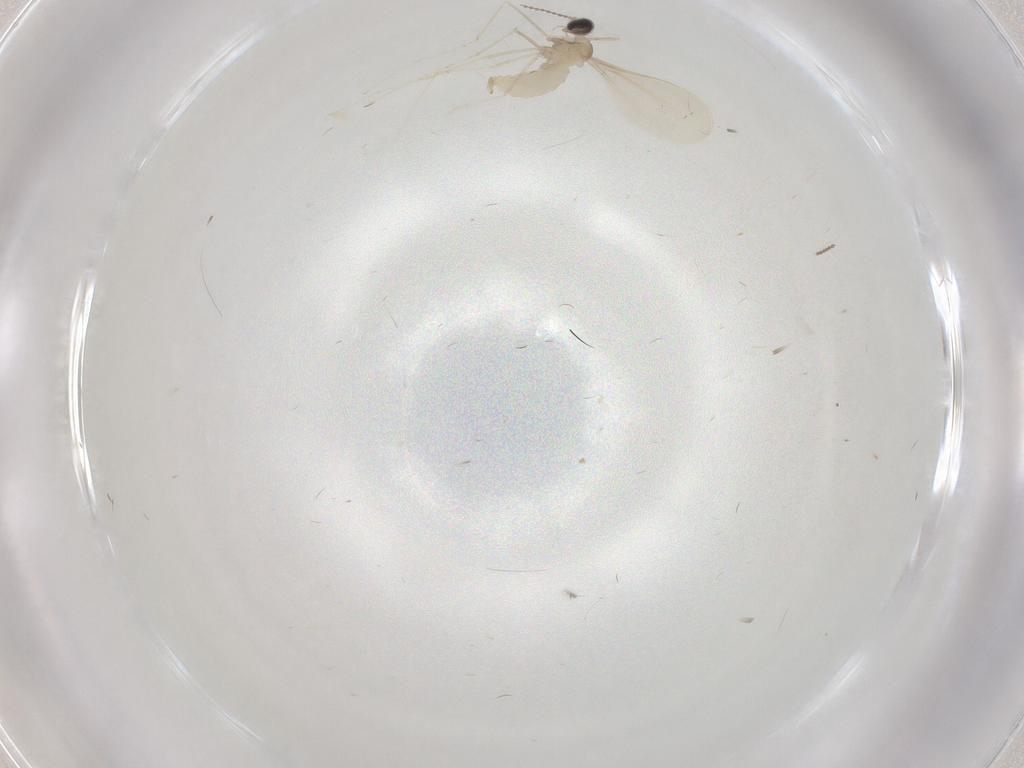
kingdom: Animalia
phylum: Arthropoda
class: Insecta
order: Diptera
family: Cecidomyiidae
